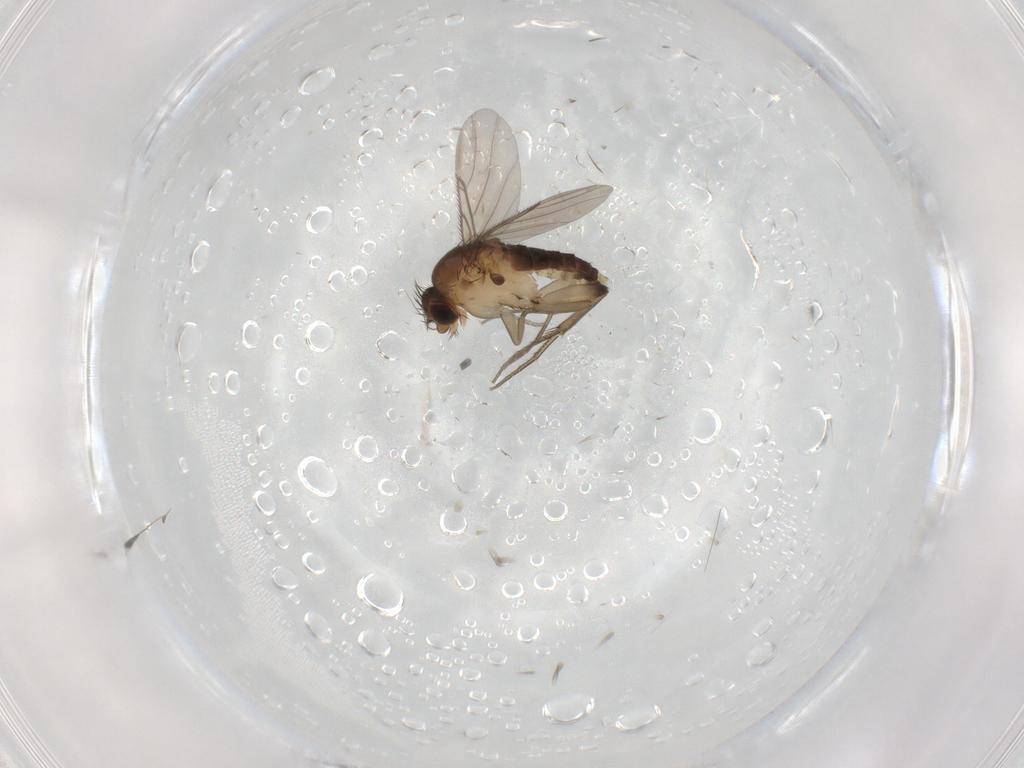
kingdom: Animalia
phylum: Arthropoda
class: Insecta
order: Diptera
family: Phoridae
